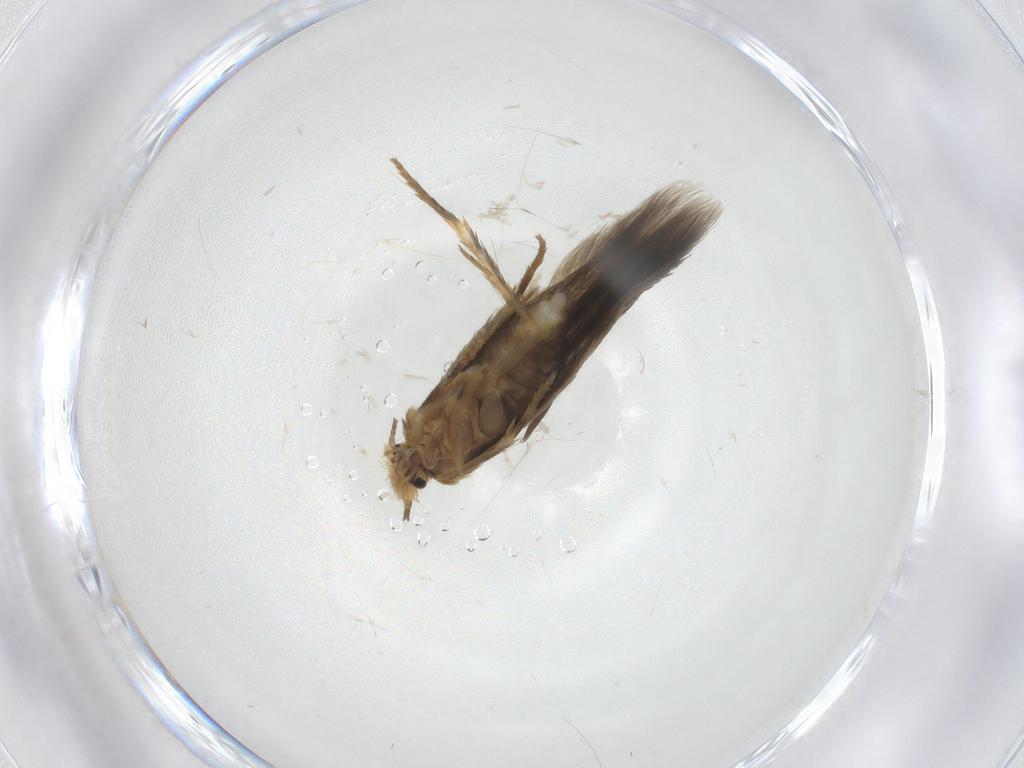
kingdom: Animalia
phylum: Arthropoda
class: Insecta
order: Lepidoptera
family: Nepticulidae
